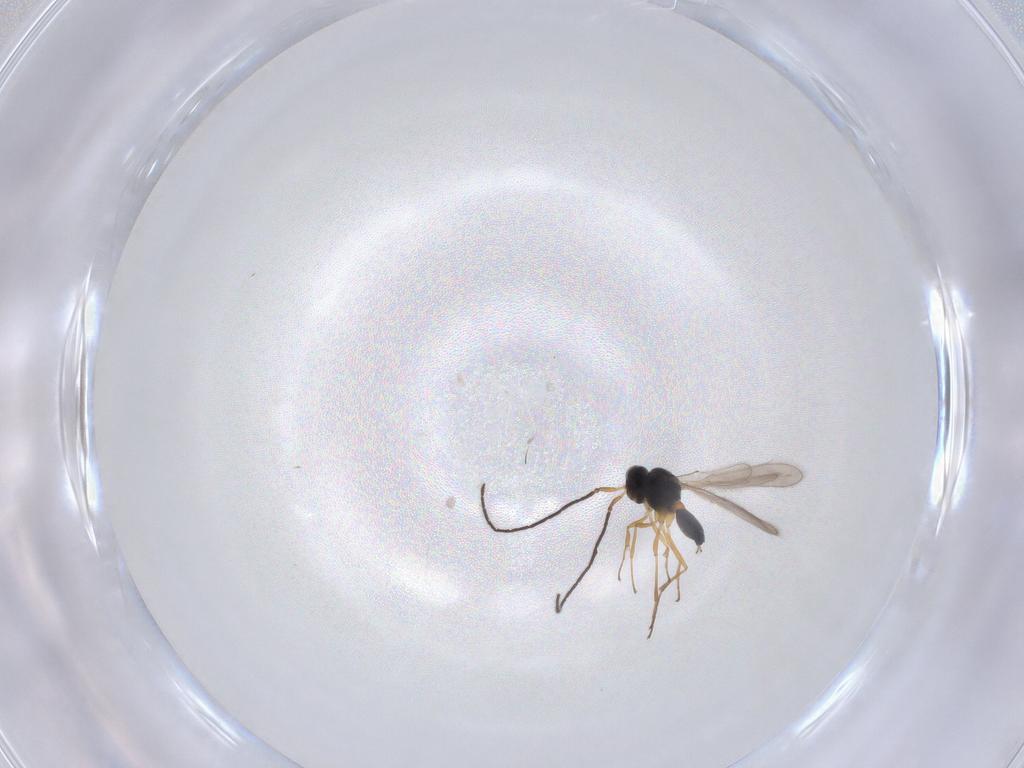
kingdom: Animalia
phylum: Arthropoda
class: Insecta
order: Hymenoptera
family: Scelionidae
